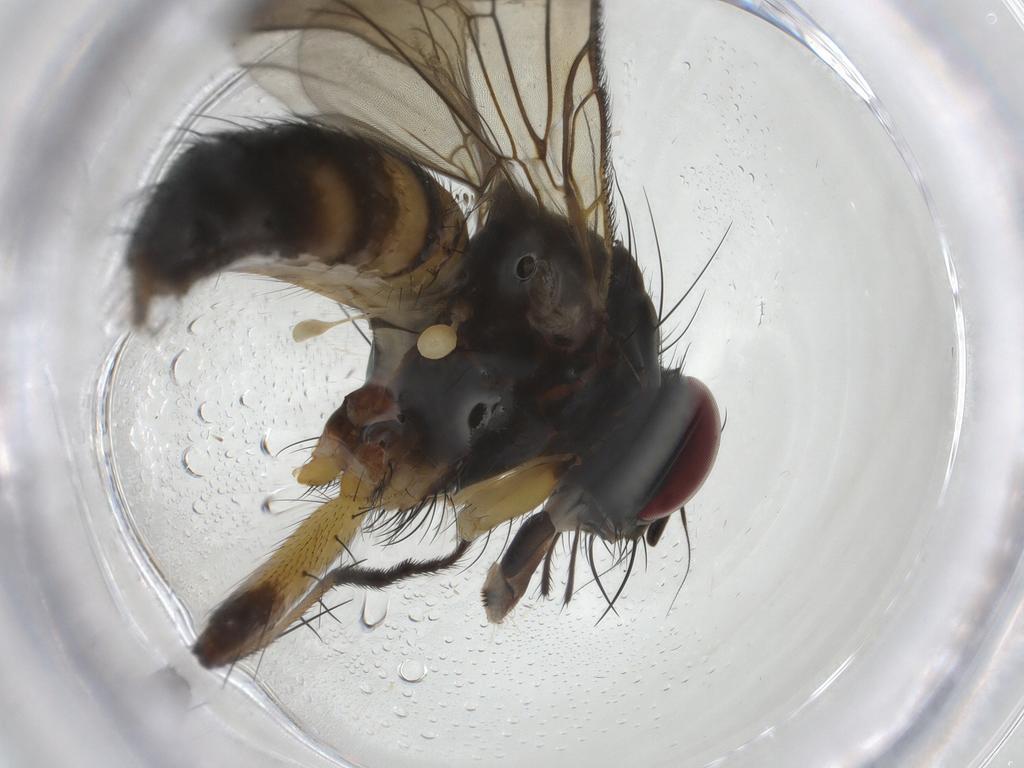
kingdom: Animalia
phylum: Arthropoda
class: Insecta
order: Diptera
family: Muscidae
